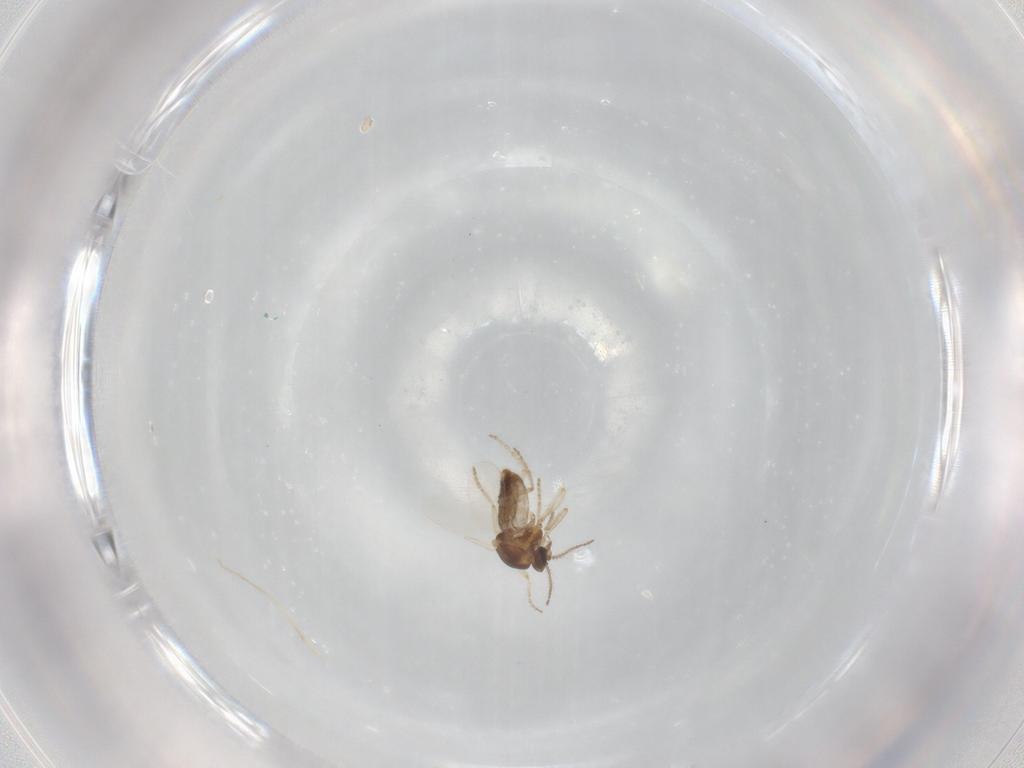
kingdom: Animalia
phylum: Arthropoda
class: Insecta
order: Diptera
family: Ceratopogonidae
